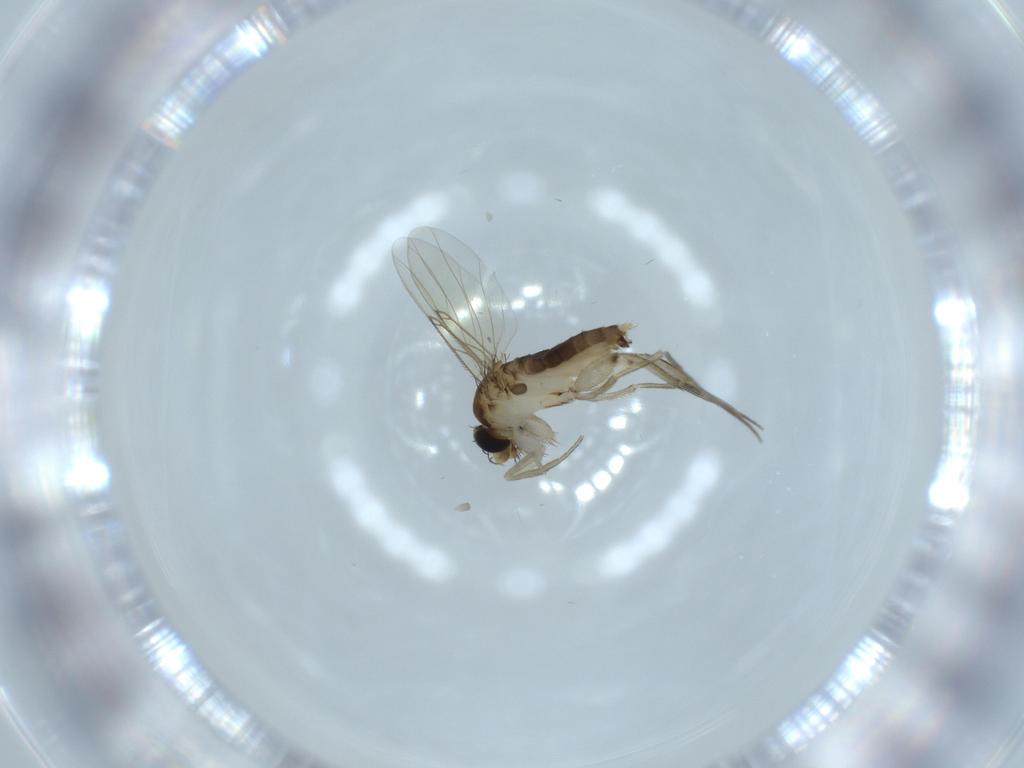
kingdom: Animalia
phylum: Arthropoda
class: Insecta
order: Diptera
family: Phoridae
